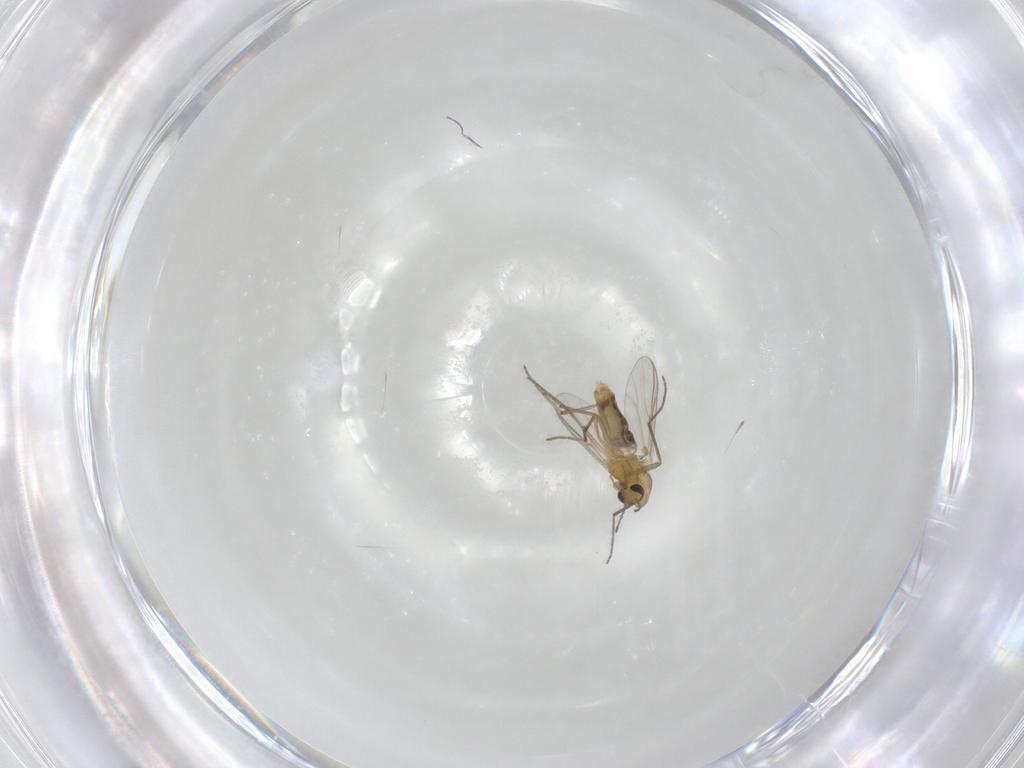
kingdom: Animalia
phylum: Arthropoda
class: Insecta
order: Diptera
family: Chironomidae
